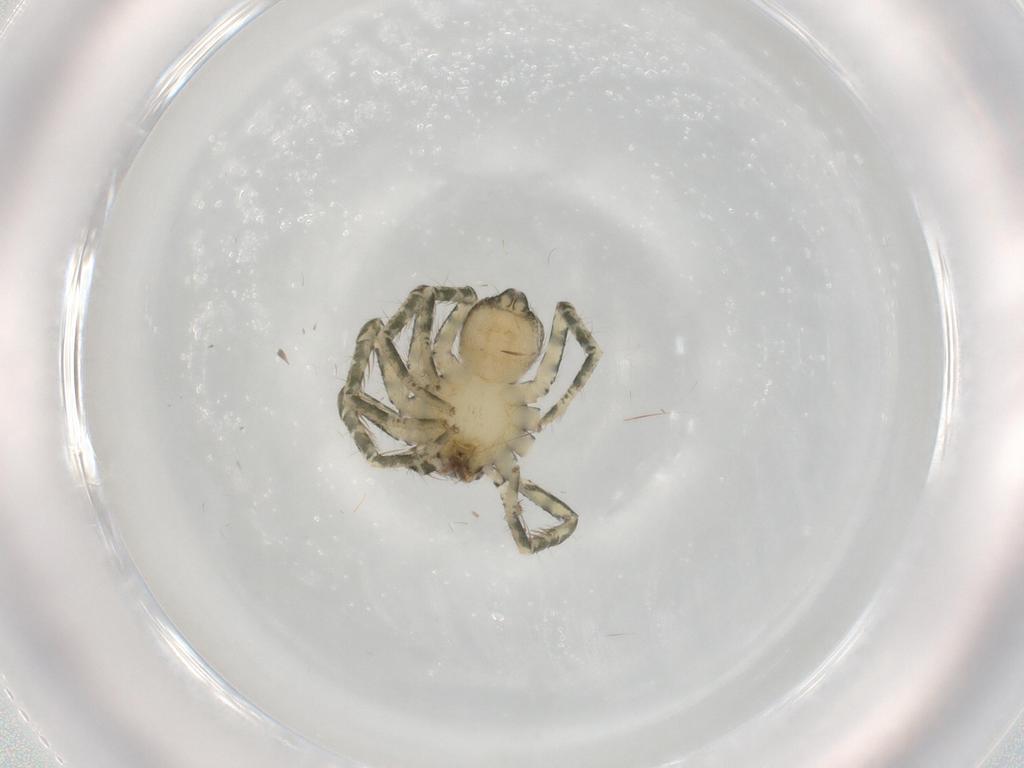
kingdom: Animalia
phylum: Arthropoda
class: Arachnida
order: Araneae
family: Selenopidae
